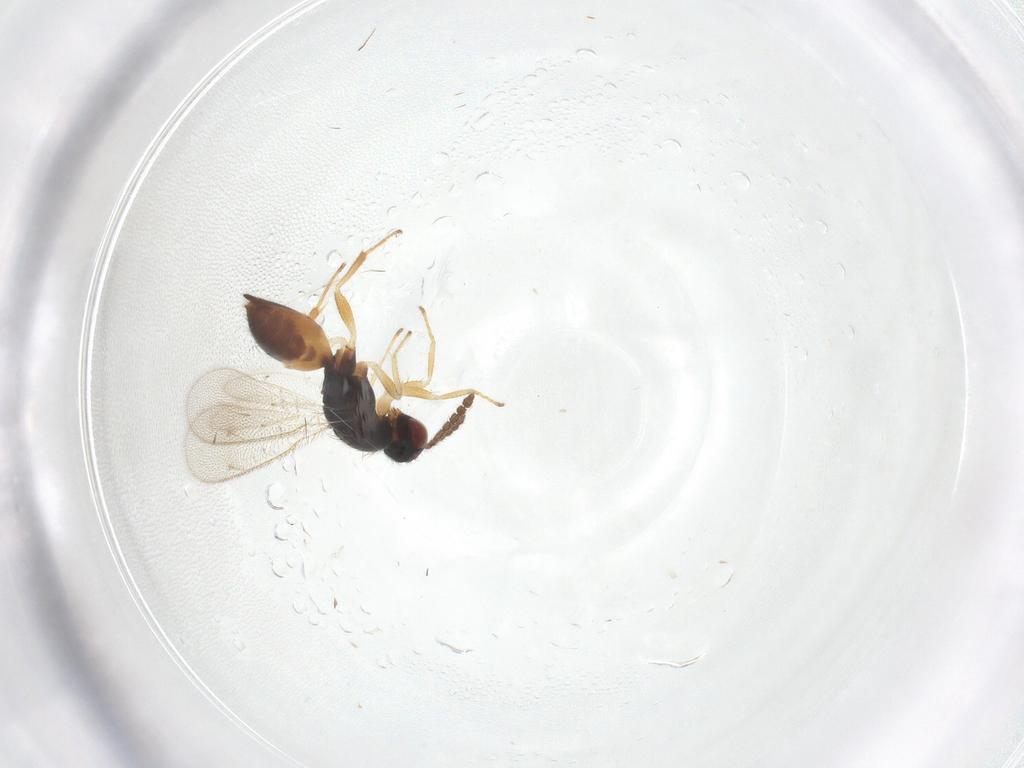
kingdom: Animalia
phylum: Arthropoda
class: Insecta
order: Hymenoptera
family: Eulophidae
